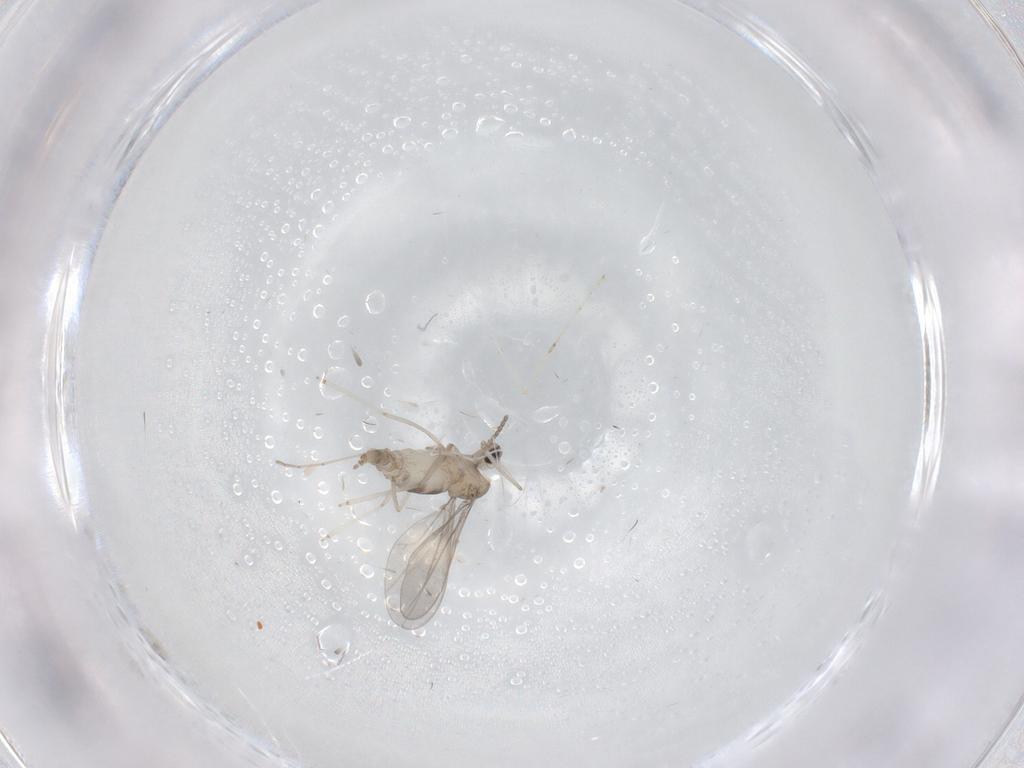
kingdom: Animalia
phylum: Arthropoda
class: Insecta
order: Diptera
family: Cecidomyiidae
